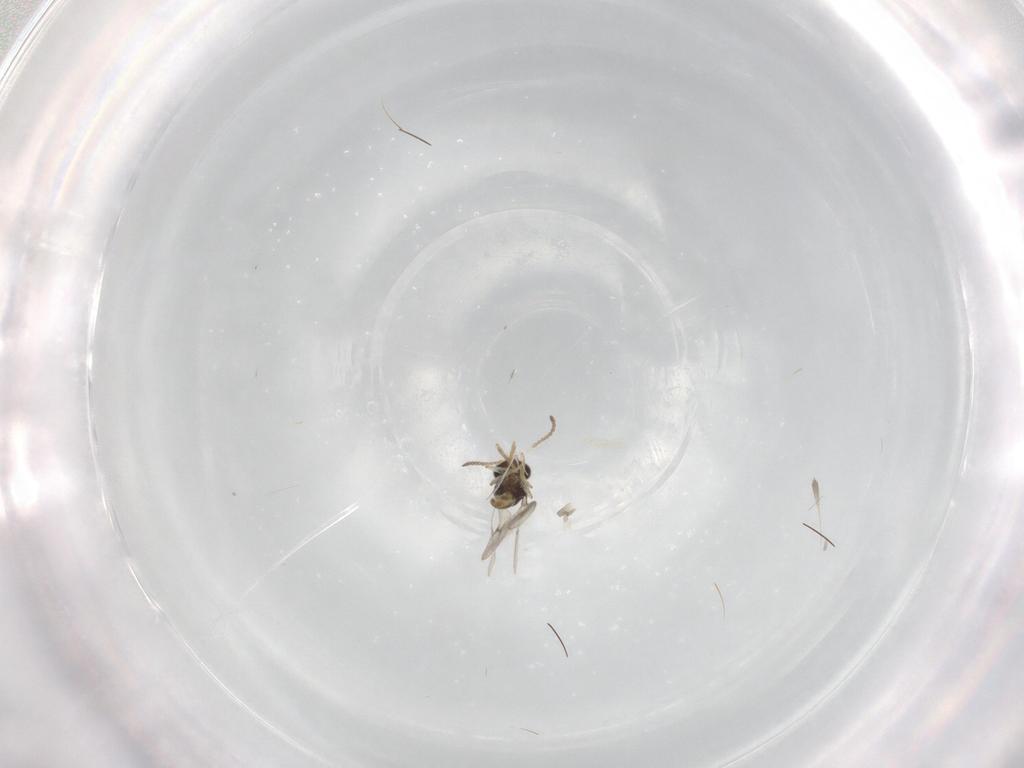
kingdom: Animalia
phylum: Arthropoda
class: Insecta
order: Hymenoptera
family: Scelionidae
